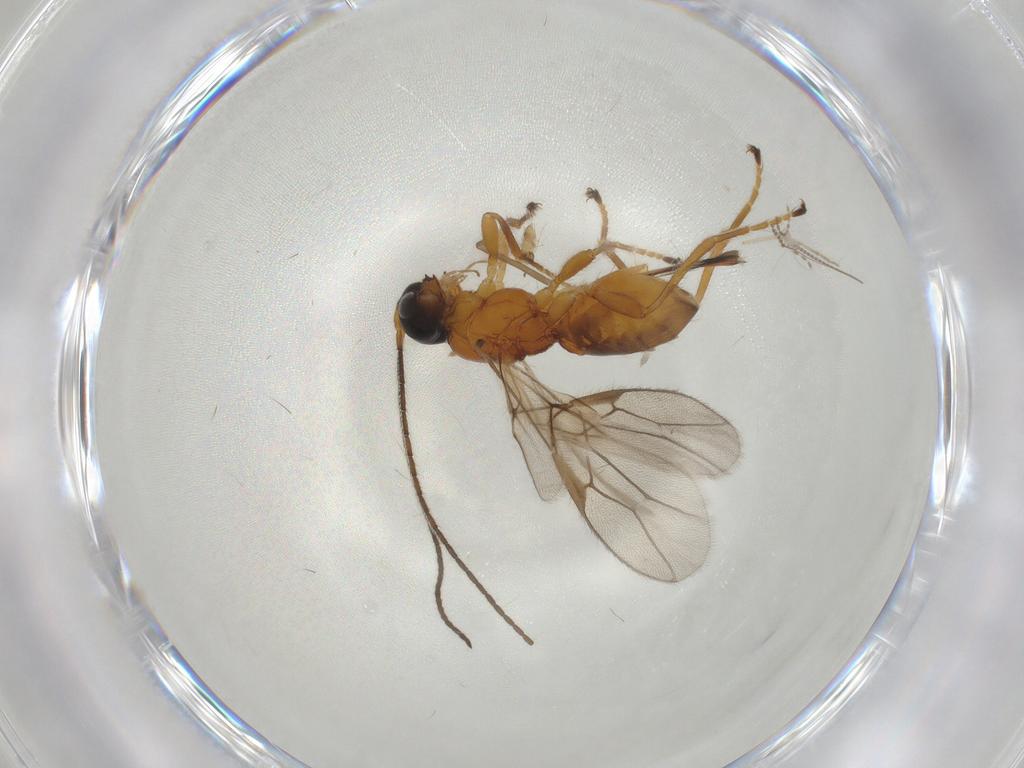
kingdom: Animalia
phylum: Arthropoda
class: Insecta
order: Hymenoptera
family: Braconidae
